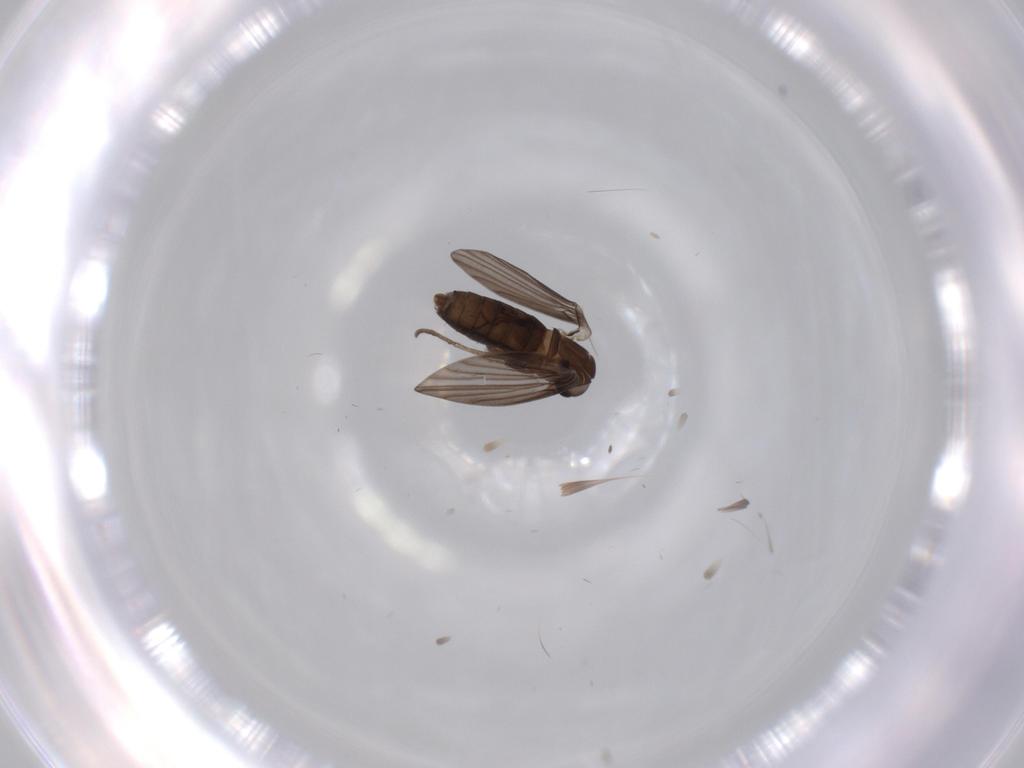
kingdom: Animalia
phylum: Arthropoda
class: Insecta
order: Diptera
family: Psychodidae
